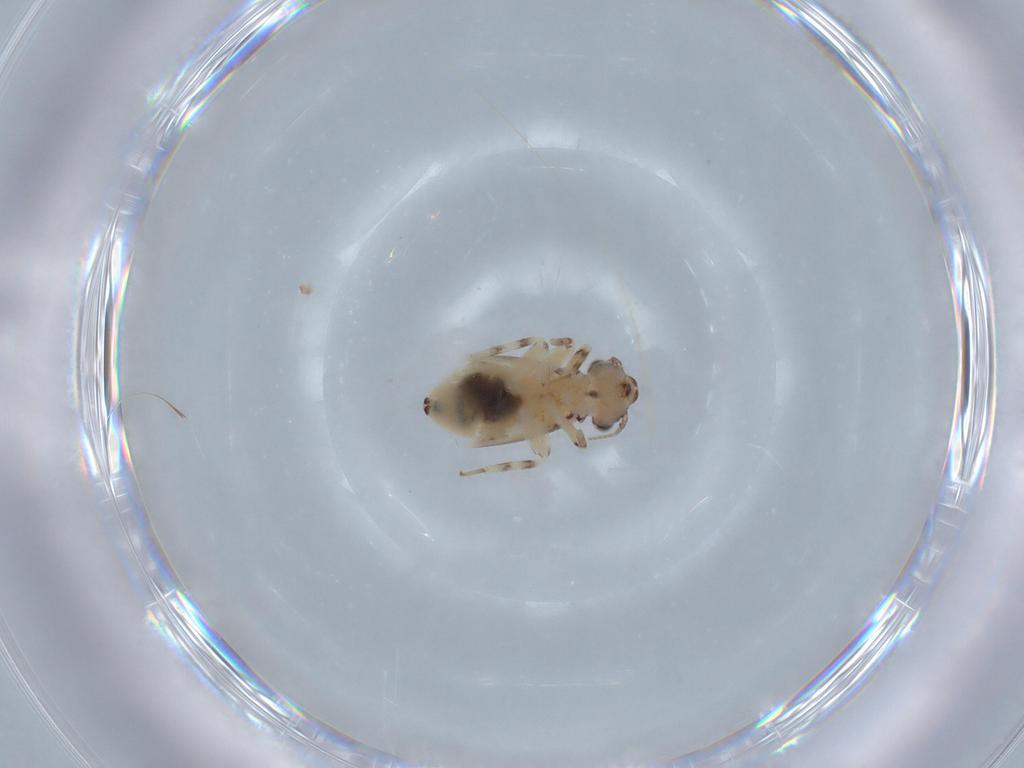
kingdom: Animalia
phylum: Arthropoda
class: Insecta
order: Psocodea
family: Lepidopsocidae
